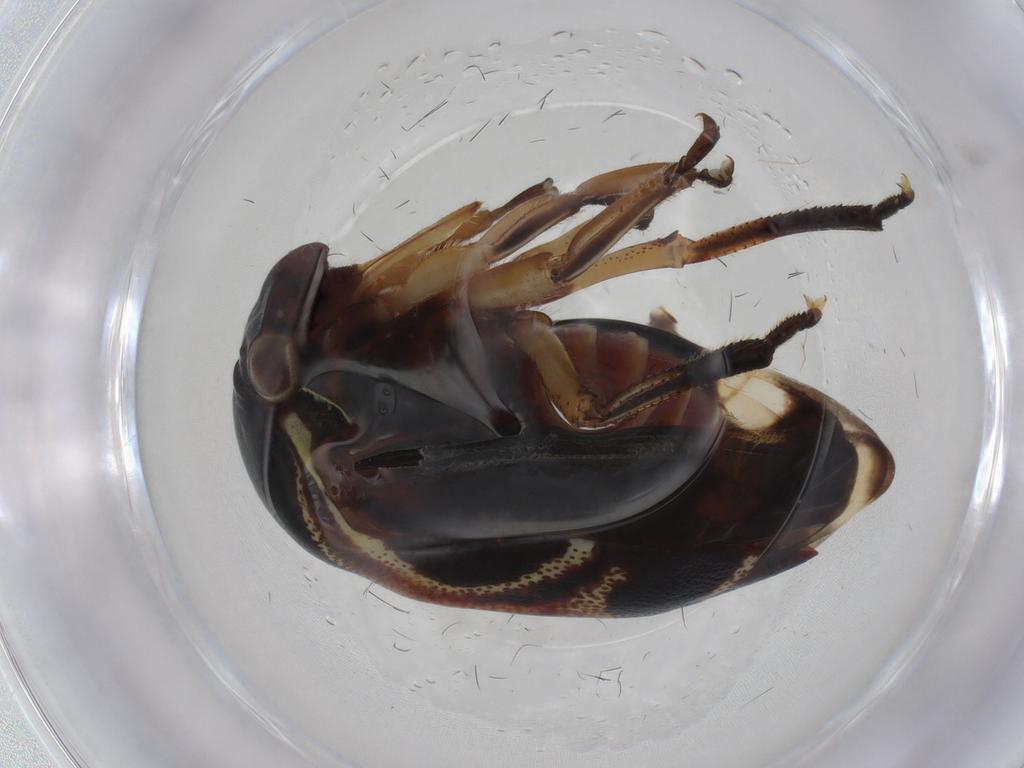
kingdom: Animalia
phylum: Arthropoda
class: Insecta
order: Hemiptera
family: Membracidae
